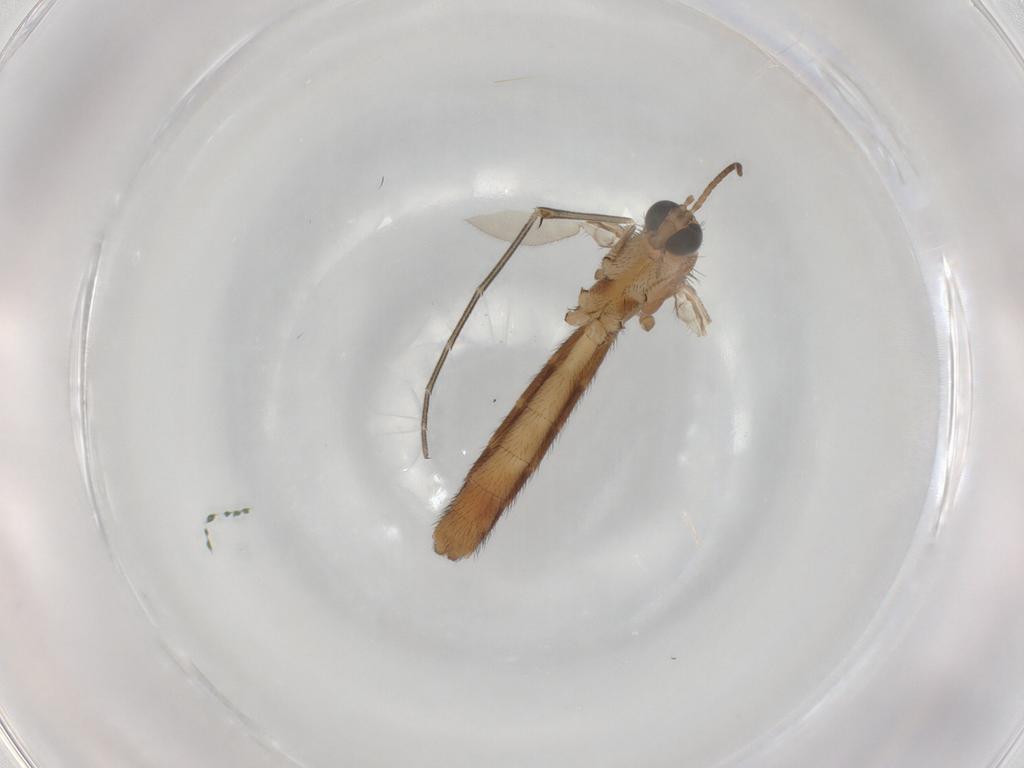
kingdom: Animalia
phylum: Arthropoda
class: Insecta
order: Diptera
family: Keroplatidae
